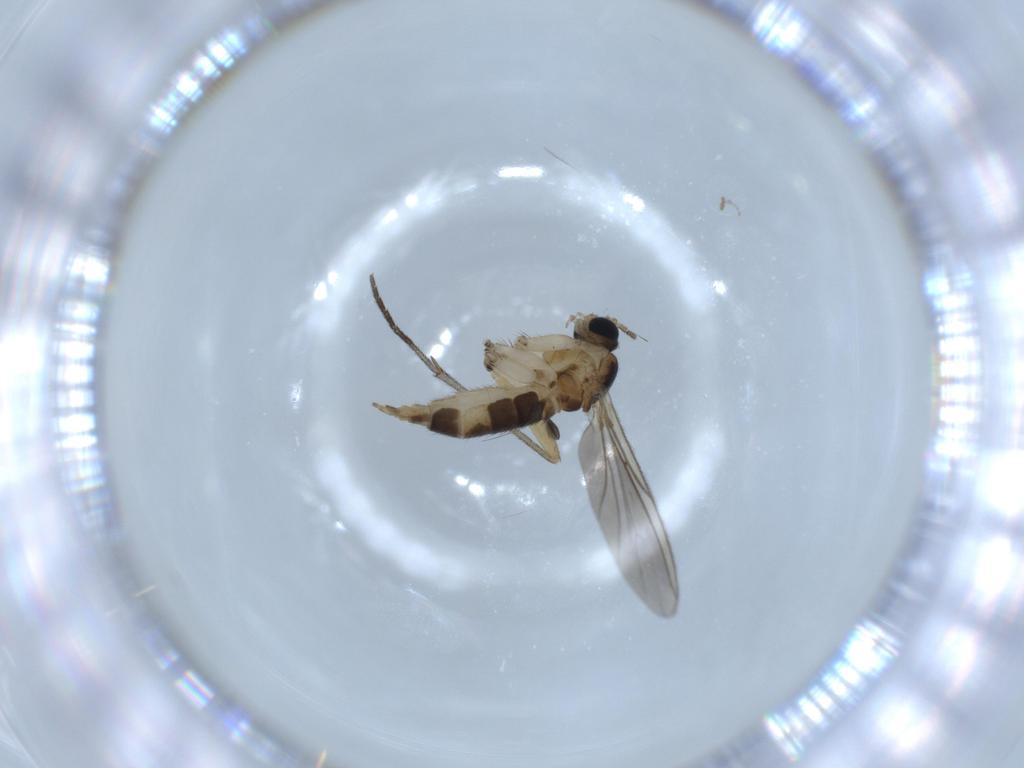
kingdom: Animalia
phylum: Arthropoda
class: Insecta
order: Diptera
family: Sciaridae
